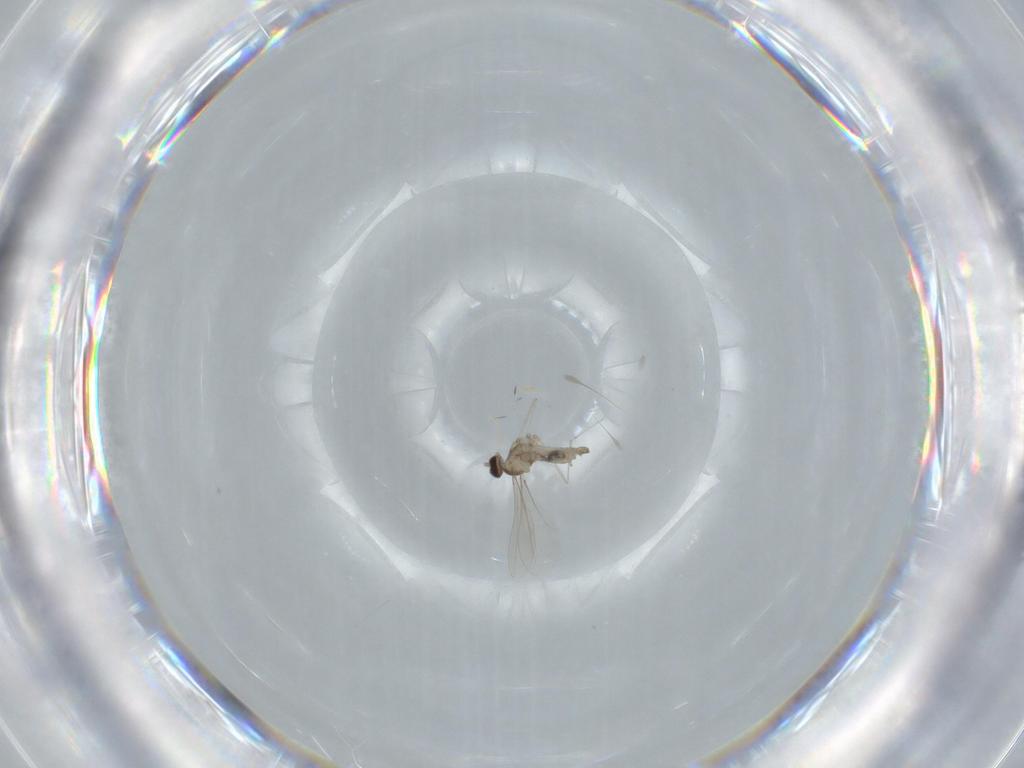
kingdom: Animalia
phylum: Arthropoda
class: Insecta
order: Diptera
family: Cecidomyiidae
